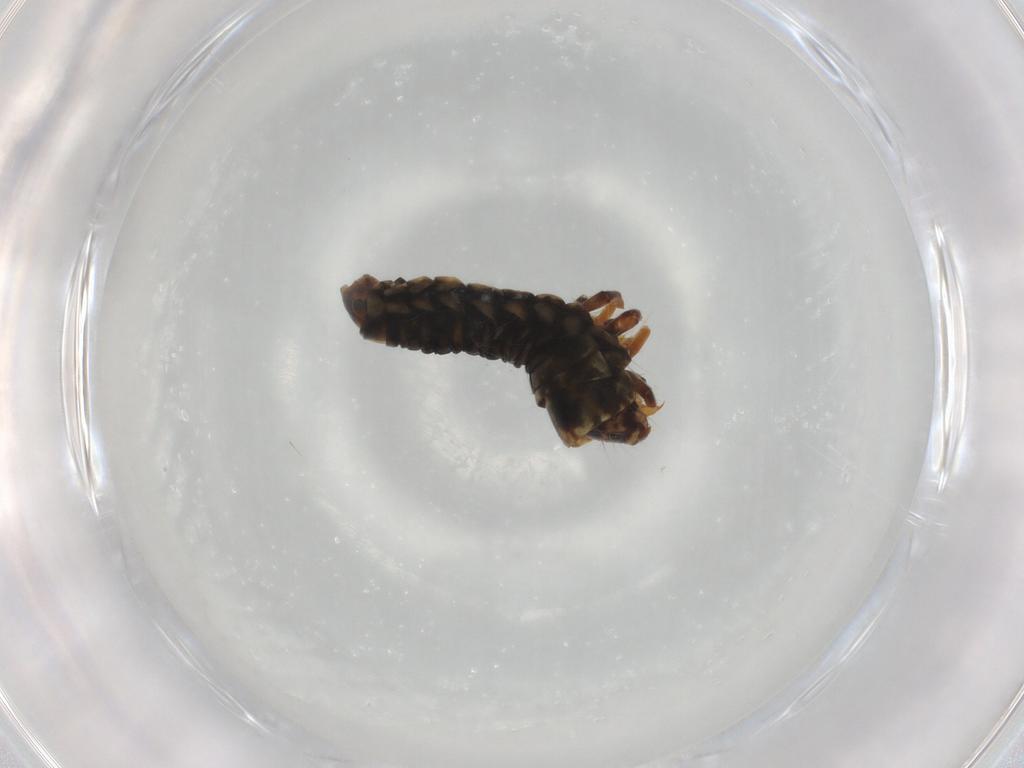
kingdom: Animalia
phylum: Arthropoda
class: Insecta
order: Lepidoptera
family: Psychidae
